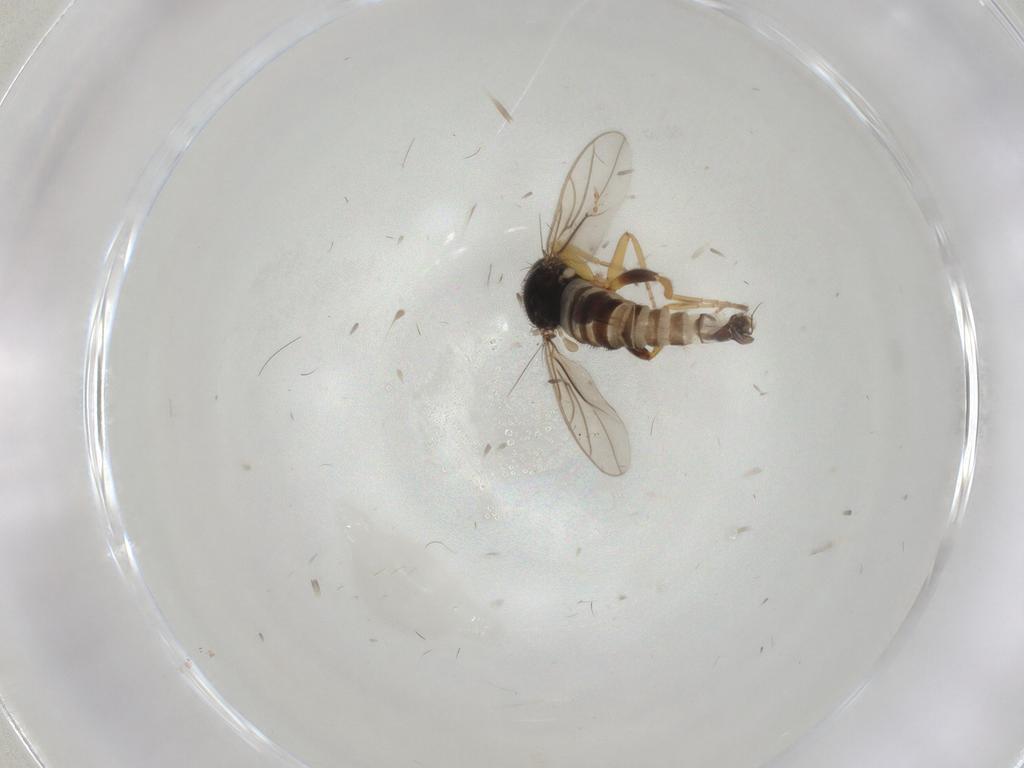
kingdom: Animalia
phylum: Arthropoda
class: Insecta
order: Diptera
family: Hybotidae
